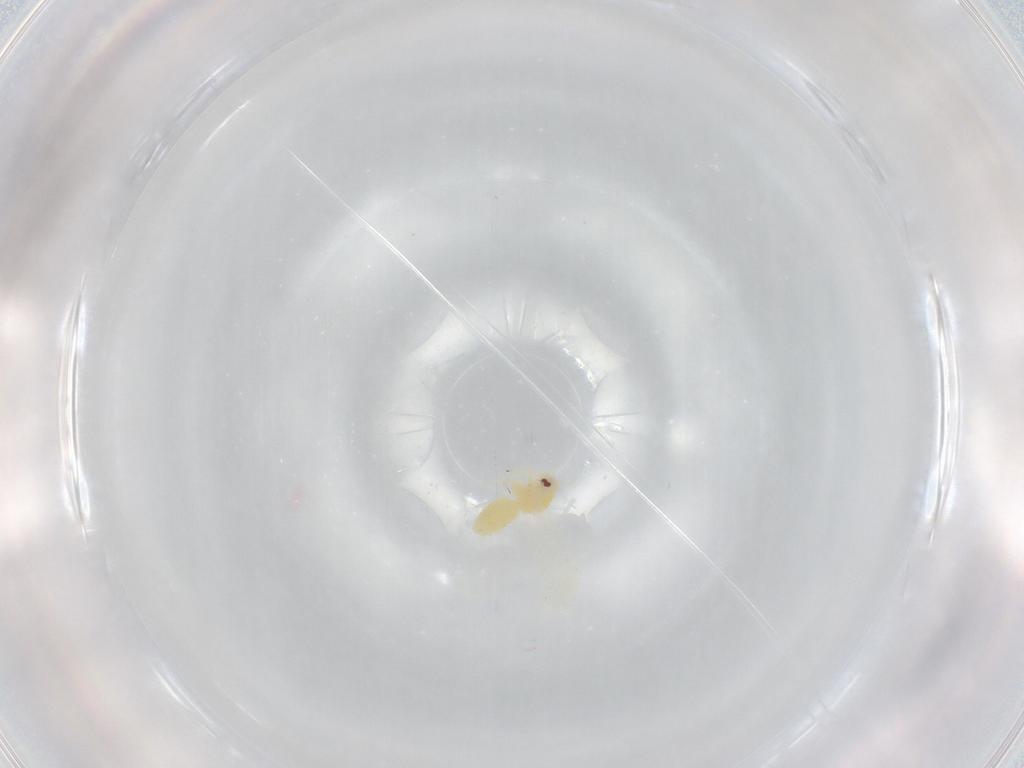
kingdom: Animalia
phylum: Arthropoda
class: Insecta
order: Hemiptera
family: Aleyrodidae
